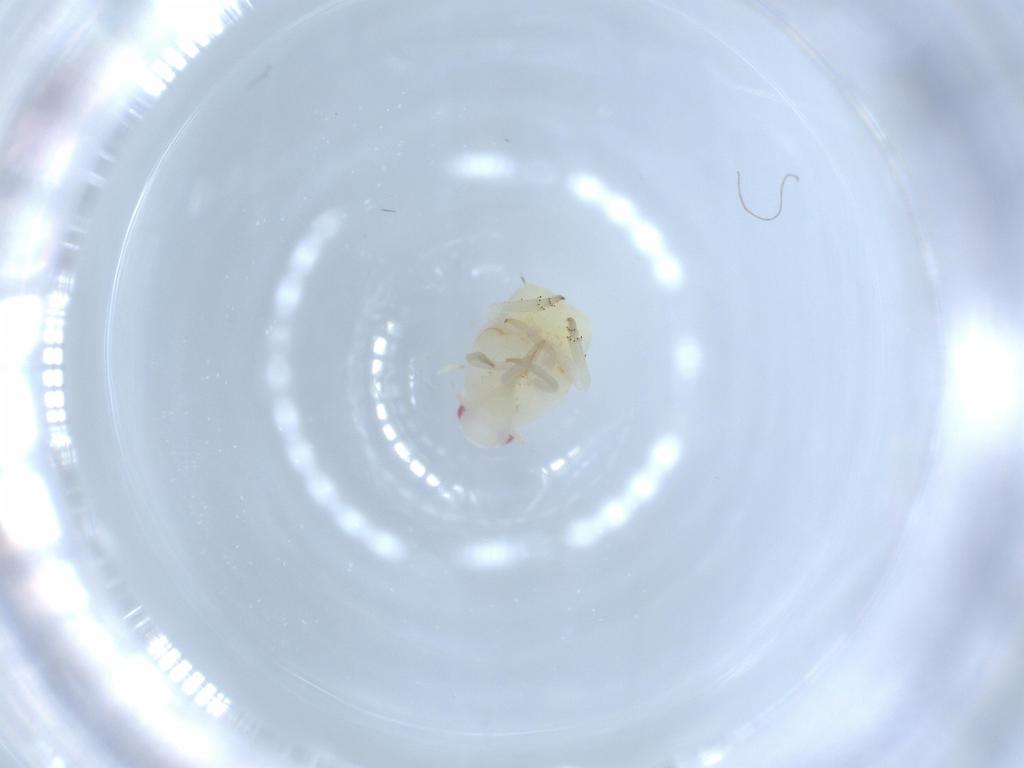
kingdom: Animalia
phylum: Arthropoda
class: Insecta
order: Hemiptera
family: Flatidae
